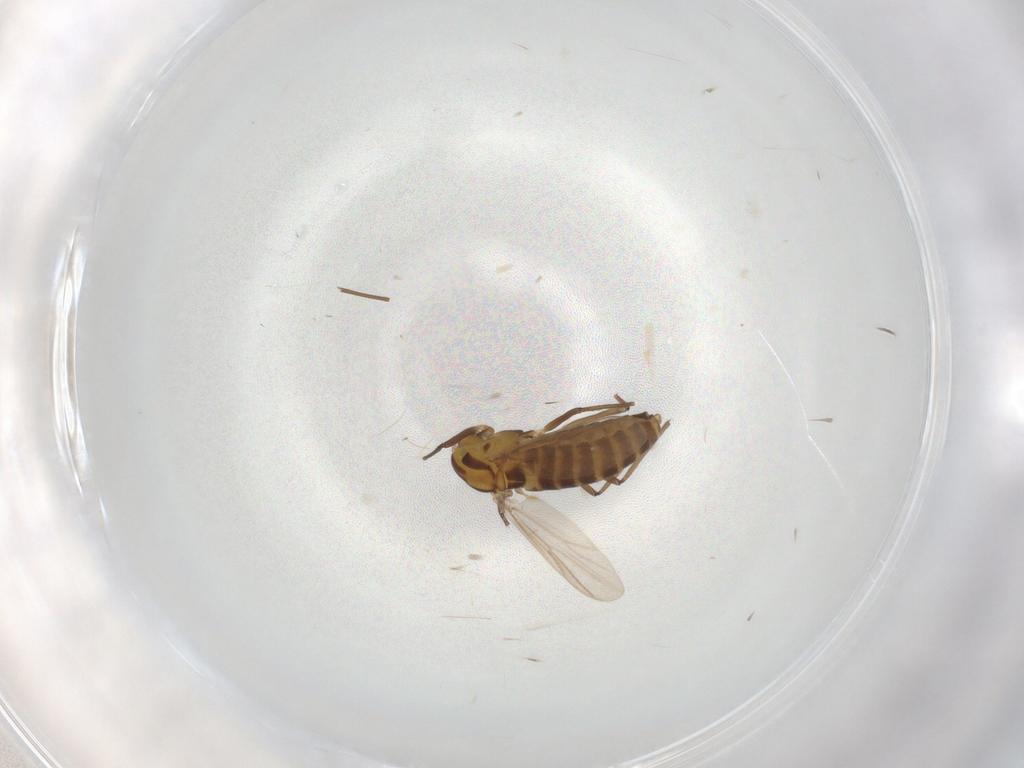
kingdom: Animalia
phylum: Arthropoda
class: Insecta
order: Diptera
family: Chironomidae
